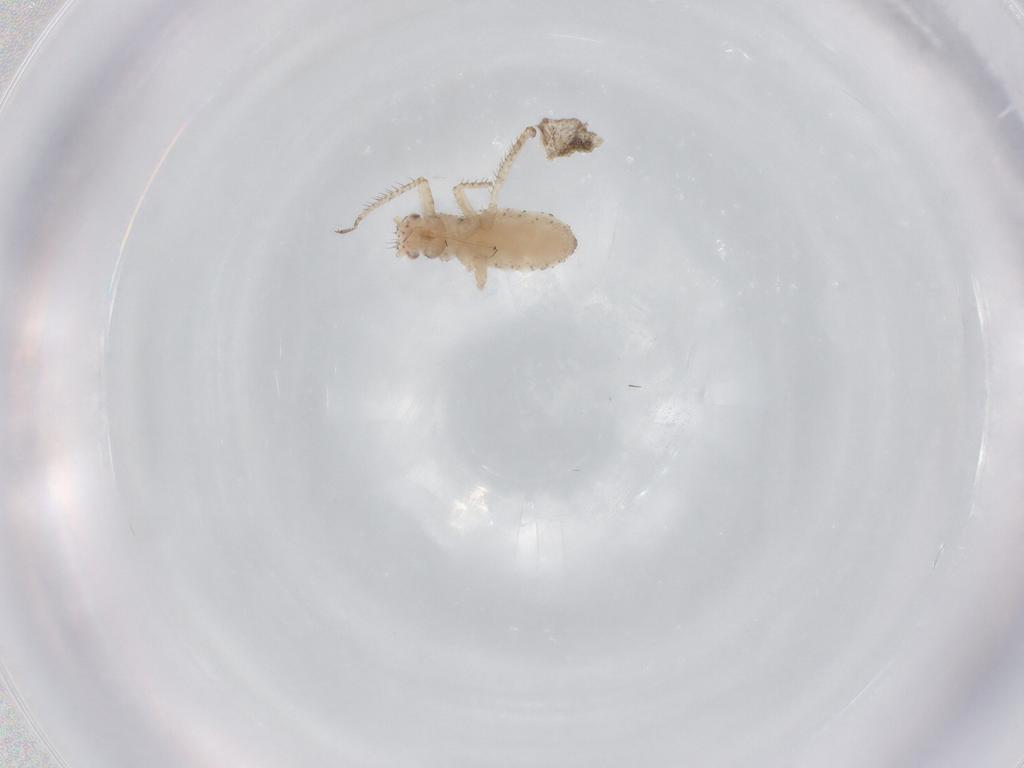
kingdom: Animalia
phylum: Arthropoda
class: Insecta
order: Hemiptera
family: Aphididae
